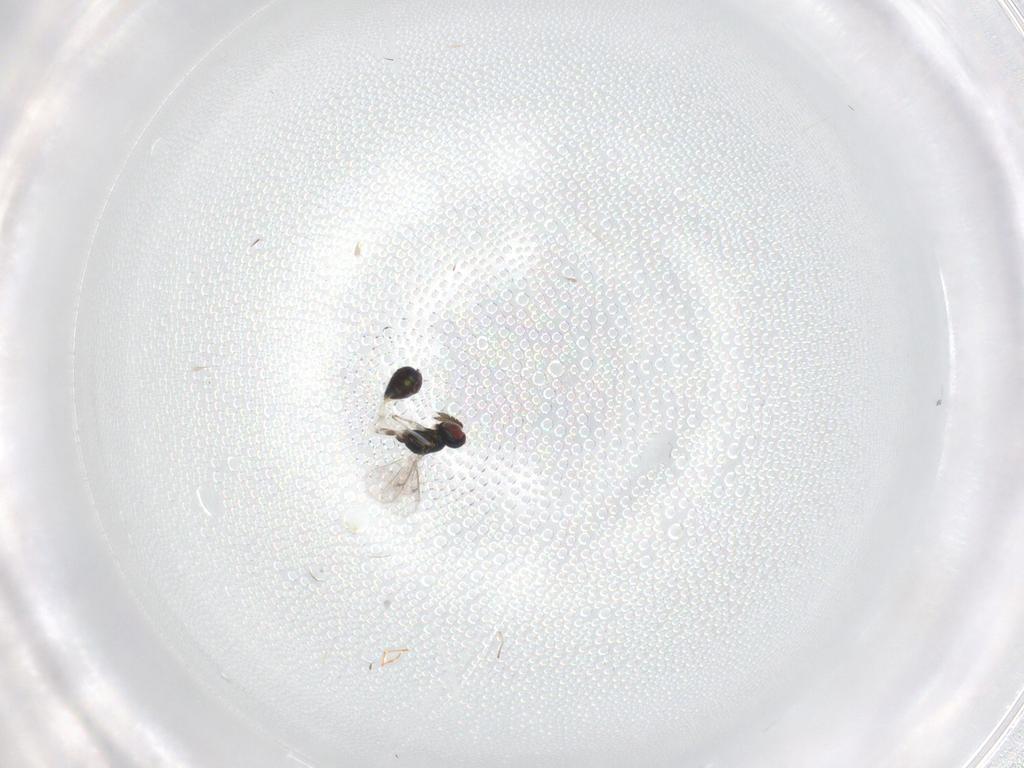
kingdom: Animalia
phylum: Arthropoda
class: Insecta
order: Hymenoptera
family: Eulophidae
